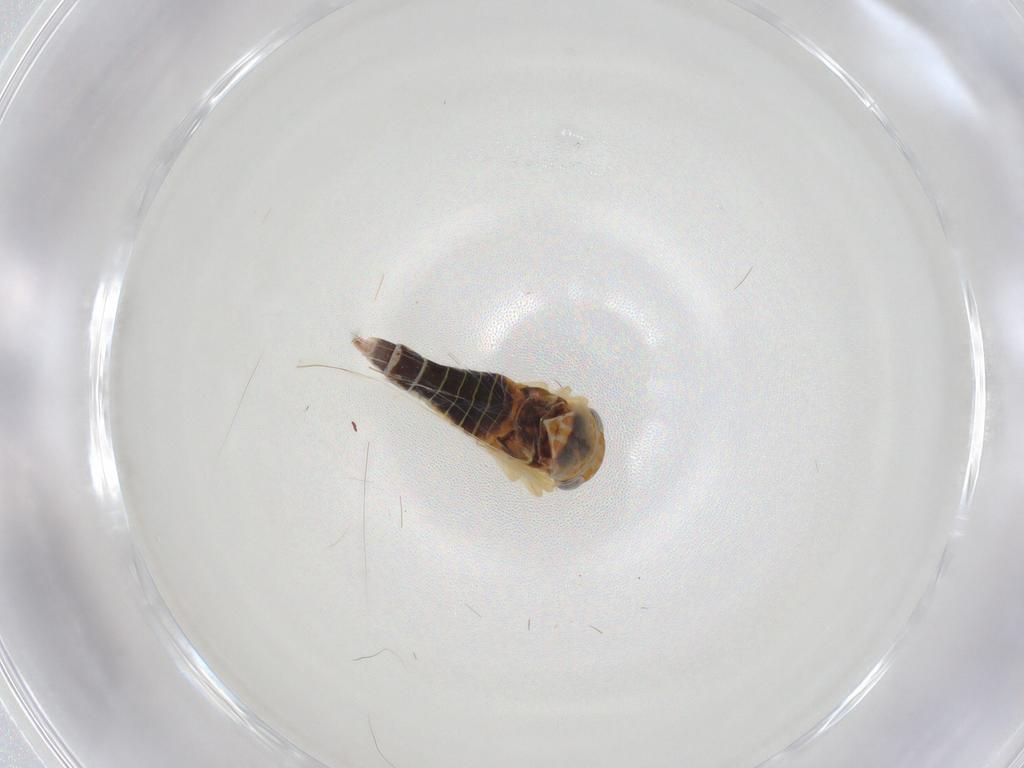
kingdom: Animalia
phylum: Arthropoda
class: Insecta
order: Hemiptera
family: Cicadellidae
